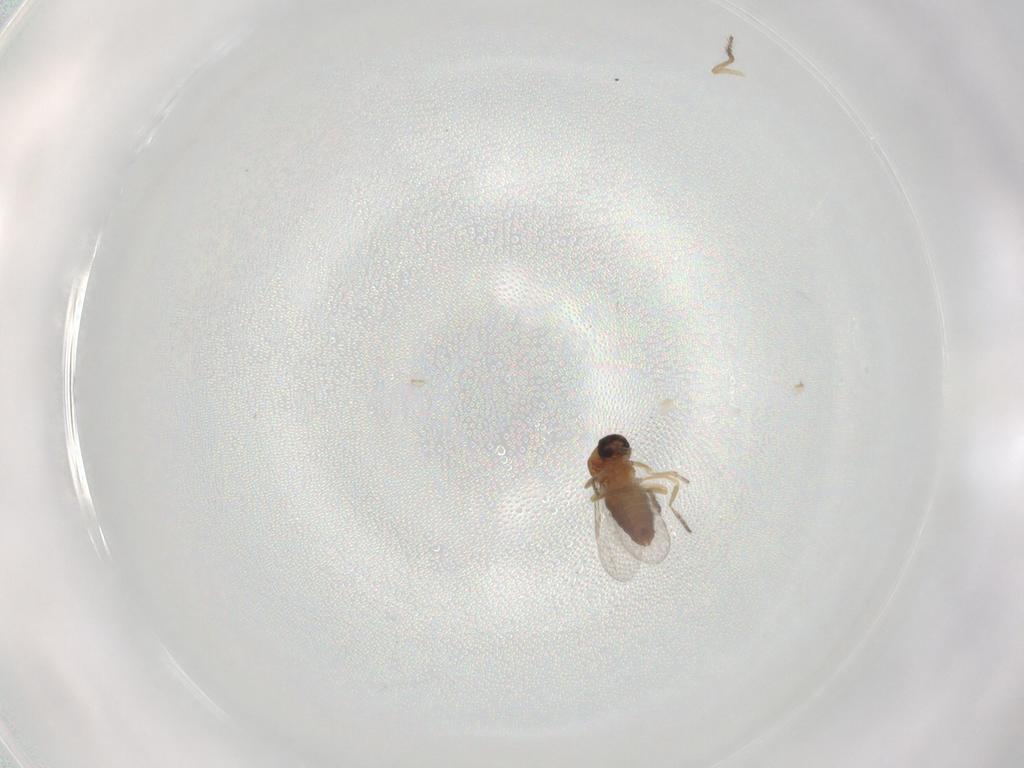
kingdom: Animalia
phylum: Arthropoda
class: Insecta
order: Diptera
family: Ceratopogonidae
